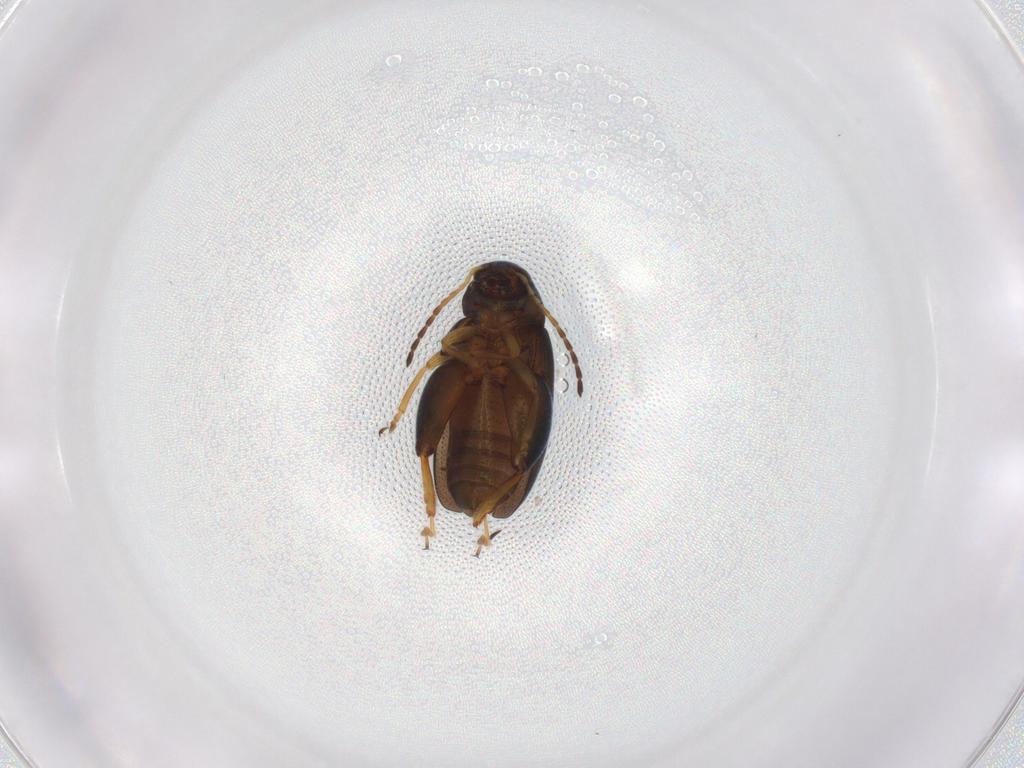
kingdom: Animalia
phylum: Arthropoda
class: Insecta
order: Coleoptera
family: Chrysomelidae
